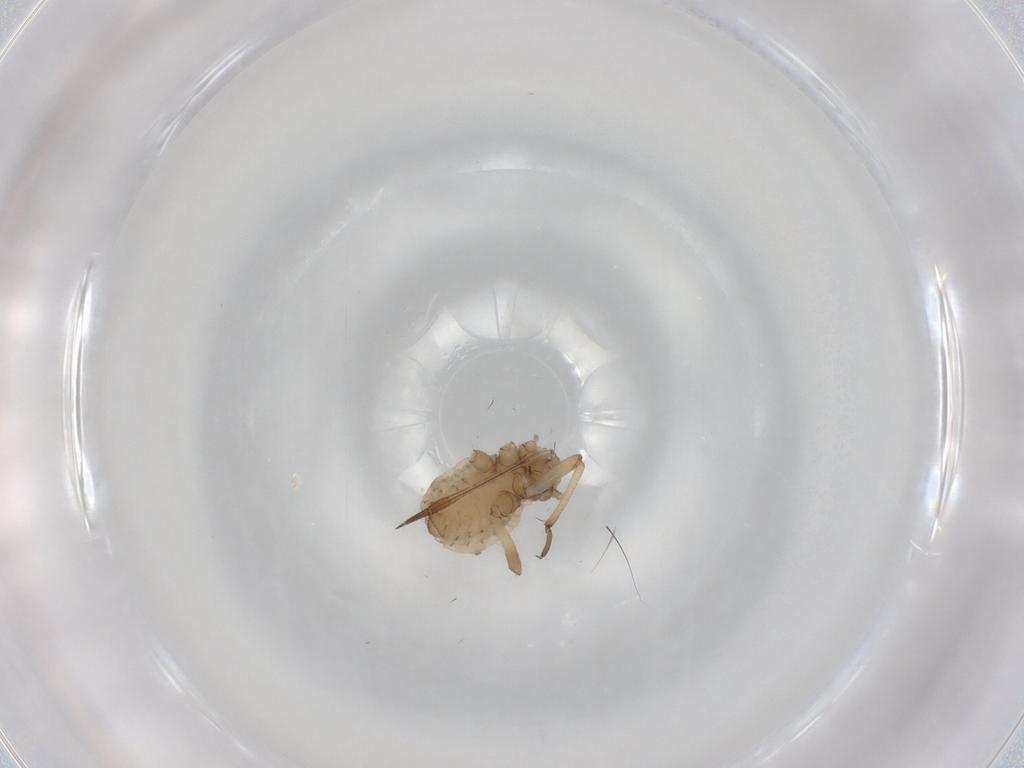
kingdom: Animalia
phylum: Arthropoda
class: Insecta
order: Hemiptera
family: Aphididae
